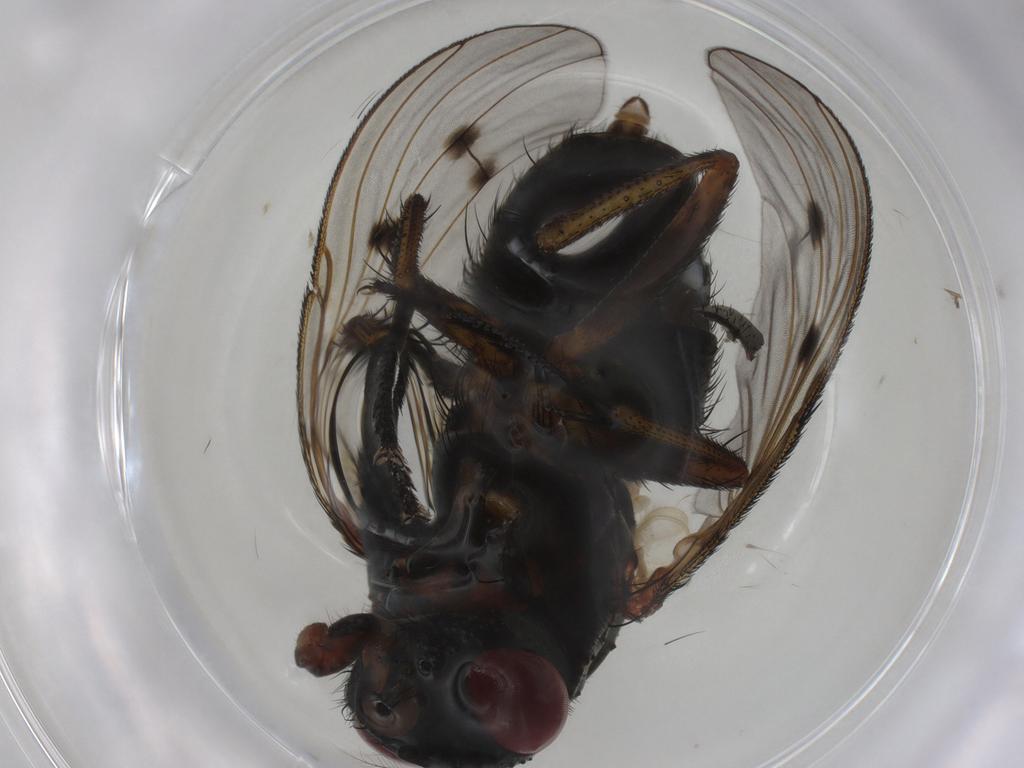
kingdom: Animalia
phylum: Arthropoda
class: Insecta
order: Diptera
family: Muscidae
